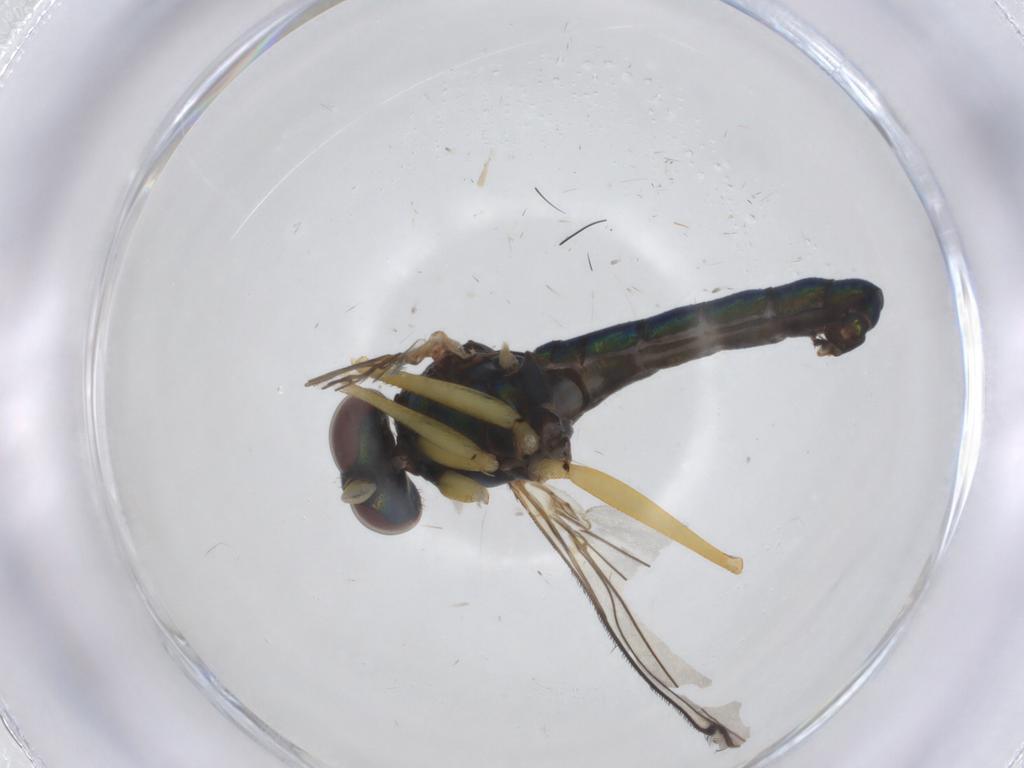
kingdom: Animalia
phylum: Arthropoda
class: Insecta
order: Diptera
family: Dolichopodidae
